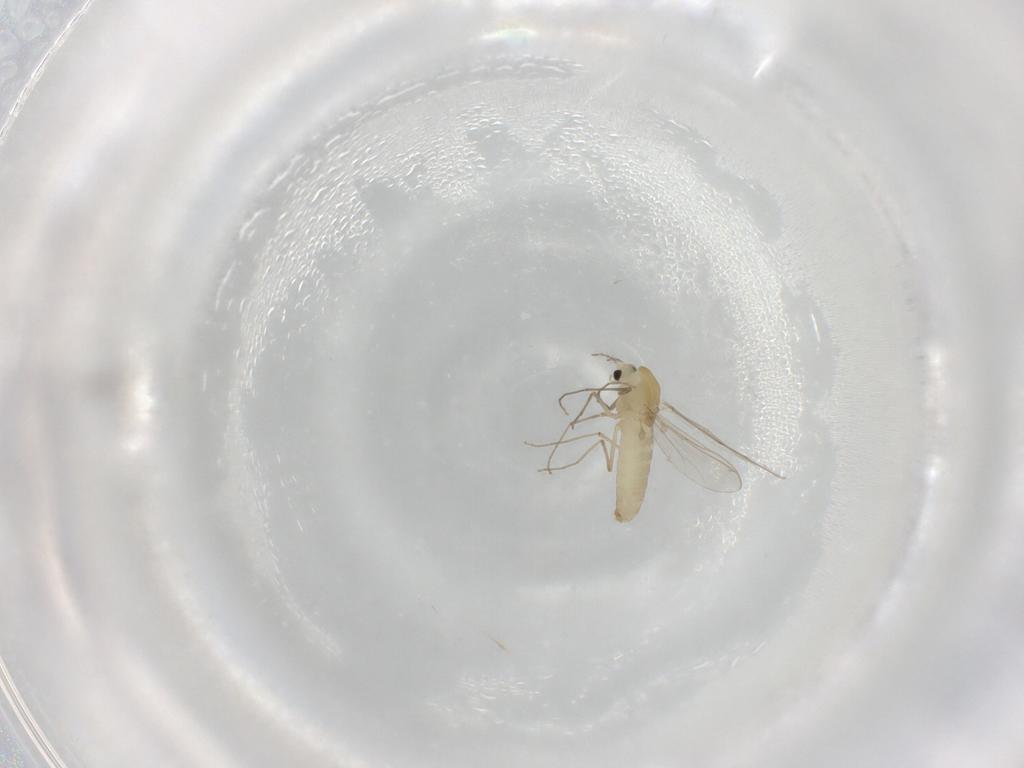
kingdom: Animalia
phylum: Arthropoda
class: Insecta
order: Diptera
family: Chironomidae
